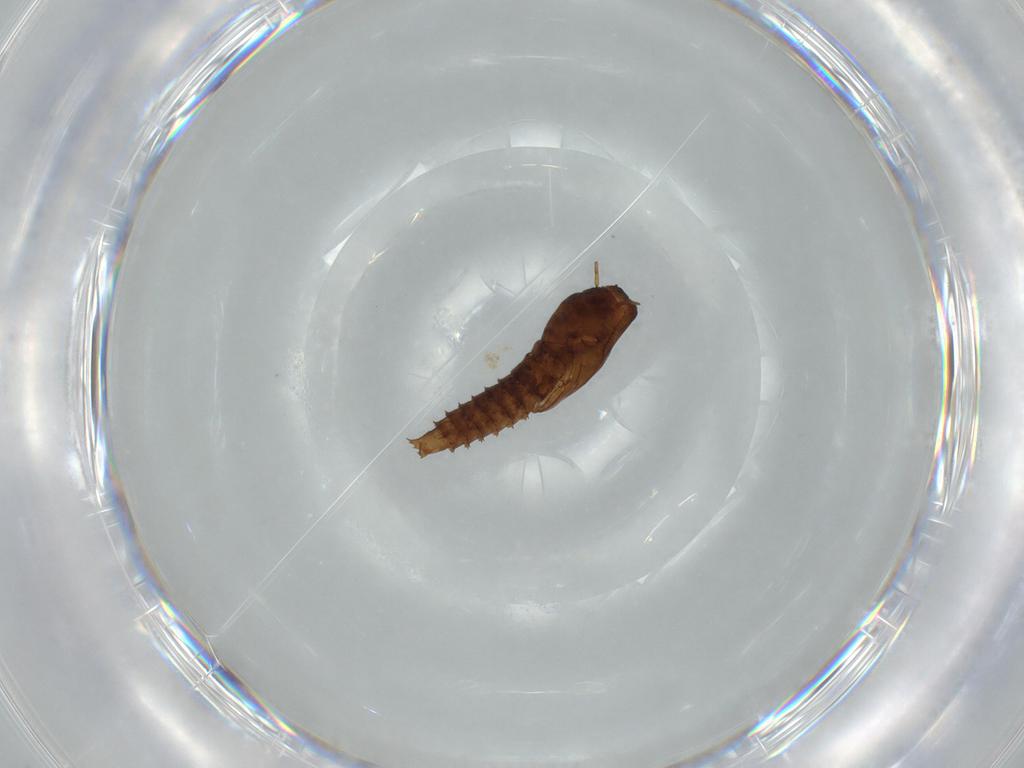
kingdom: Animalia
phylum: Arthropoda
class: Insecta
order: Diptera
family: Ceratopogonidae
